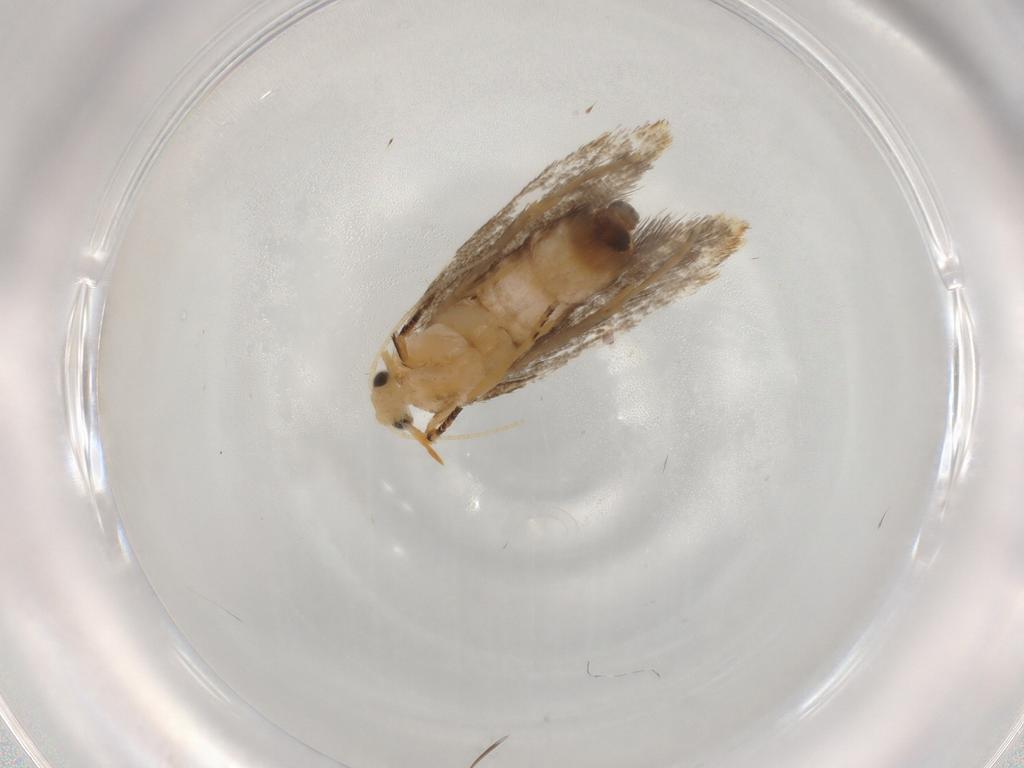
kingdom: Animalia
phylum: Arthropoda
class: Insecta
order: Lepidoptera
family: Dryadaulidae
